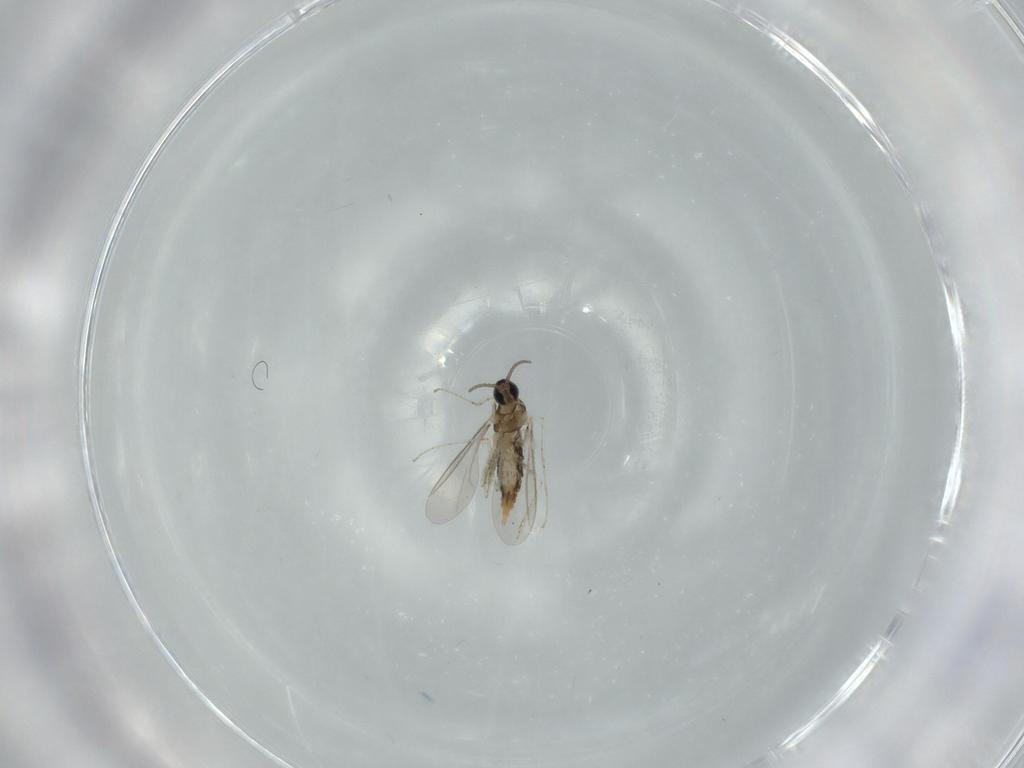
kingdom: Animalia
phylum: Arthropoda
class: Insecta
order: Diptera
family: Cecidomyiidae
